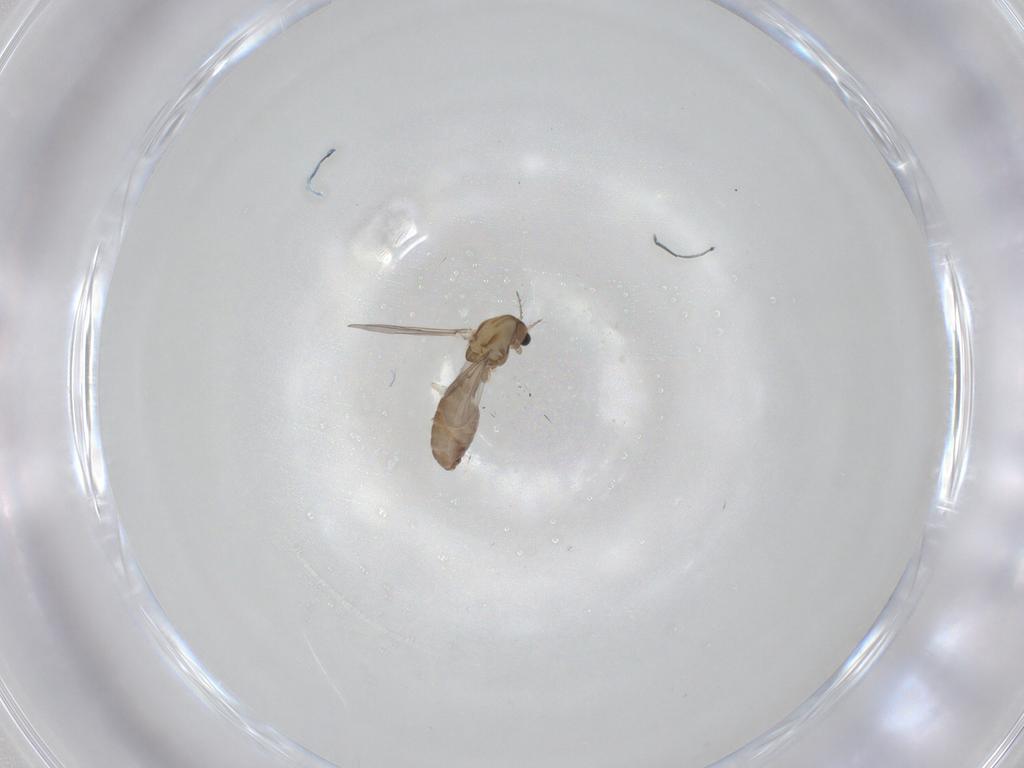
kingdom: Animalia
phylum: Arthropoda
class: Insecta
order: Diptera
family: Chironomidae
